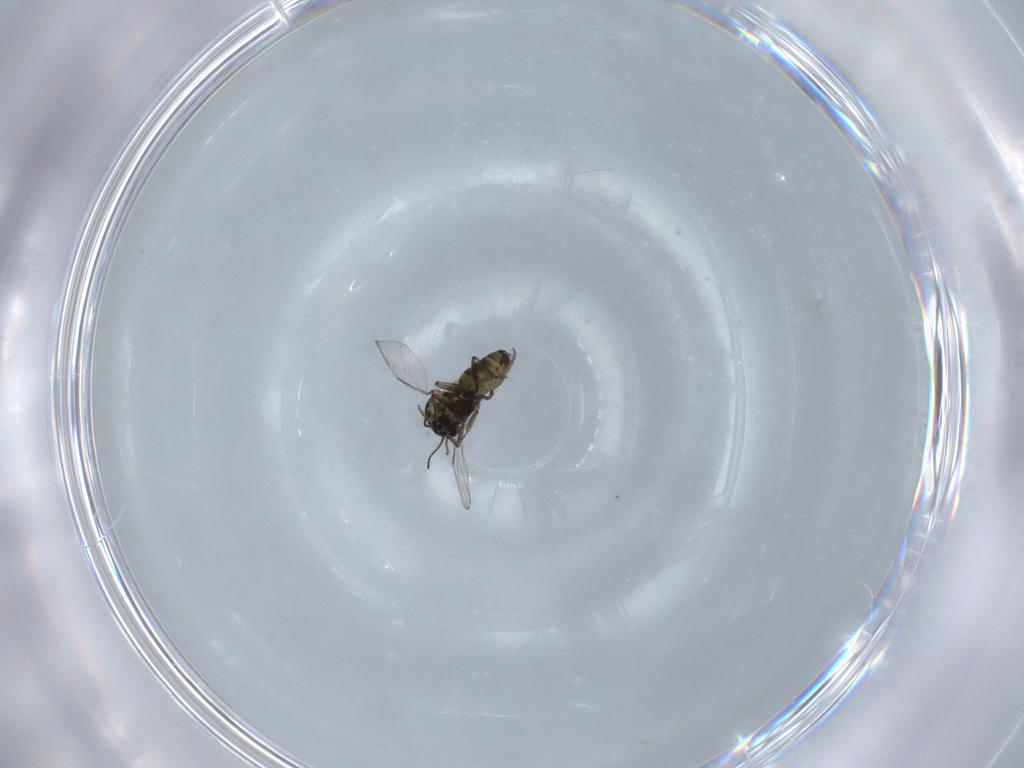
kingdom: Animalia
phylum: Arthropoda
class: Insecta
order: Diptera
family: Ceratopogonidae
